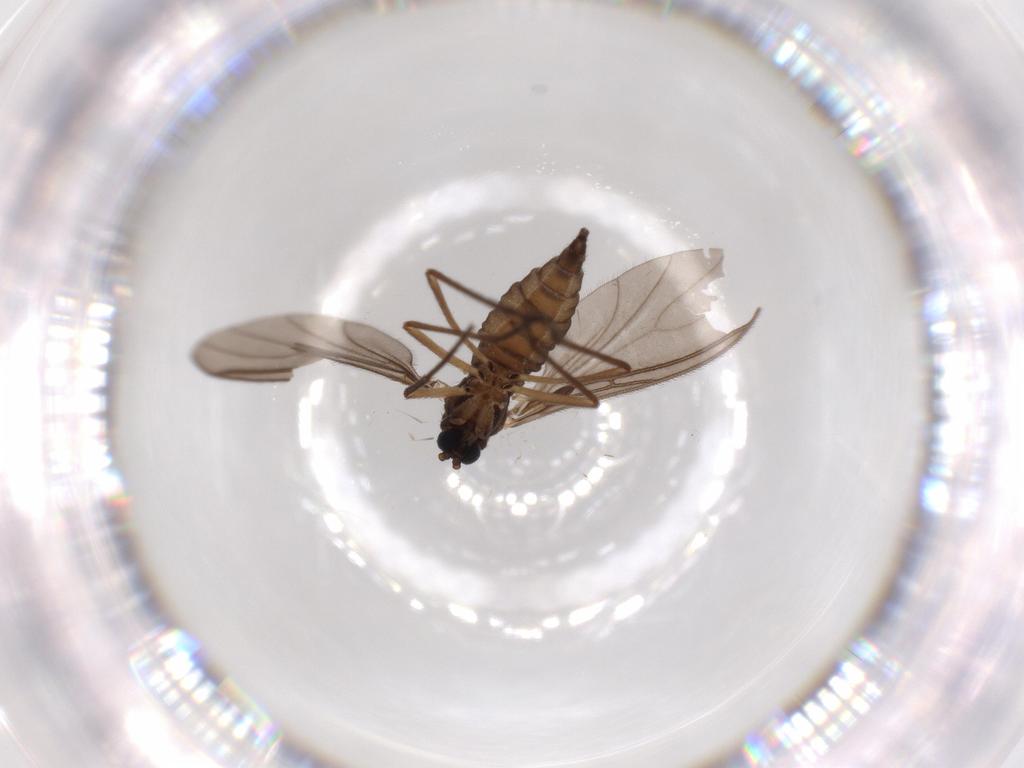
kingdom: Animalia
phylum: Arthropoda
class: Insecta
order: Diptera
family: Sciaridae
